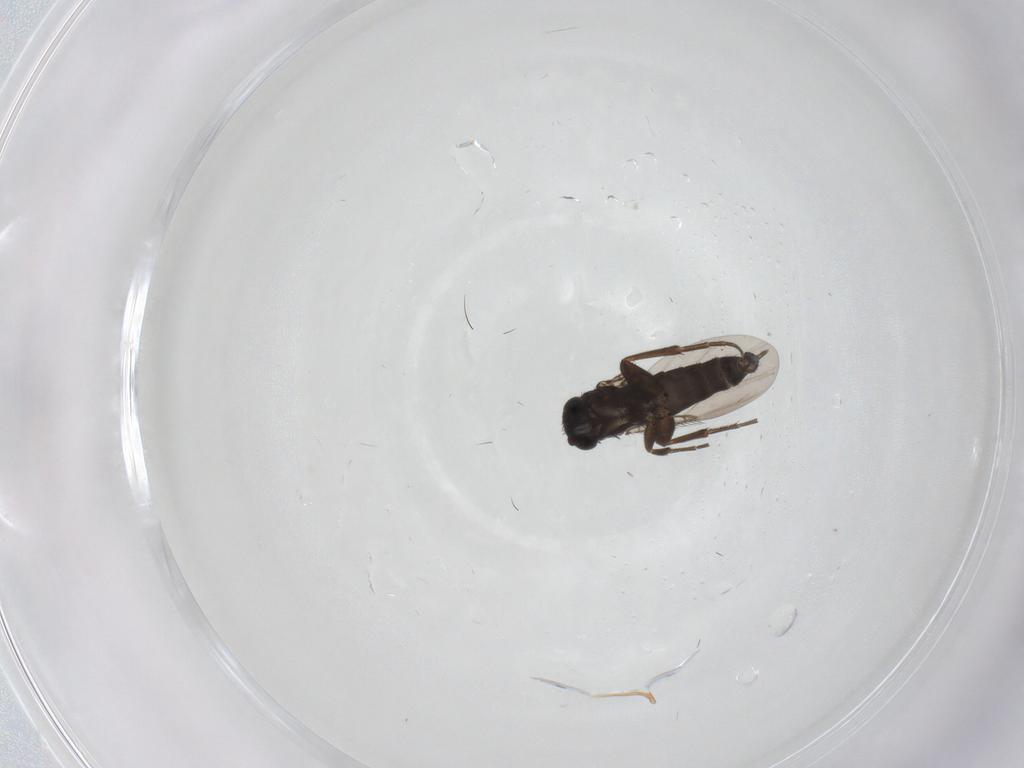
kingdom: Animalia
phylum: Arthropoda
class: Insecta
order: Diptera
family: Phoridae
